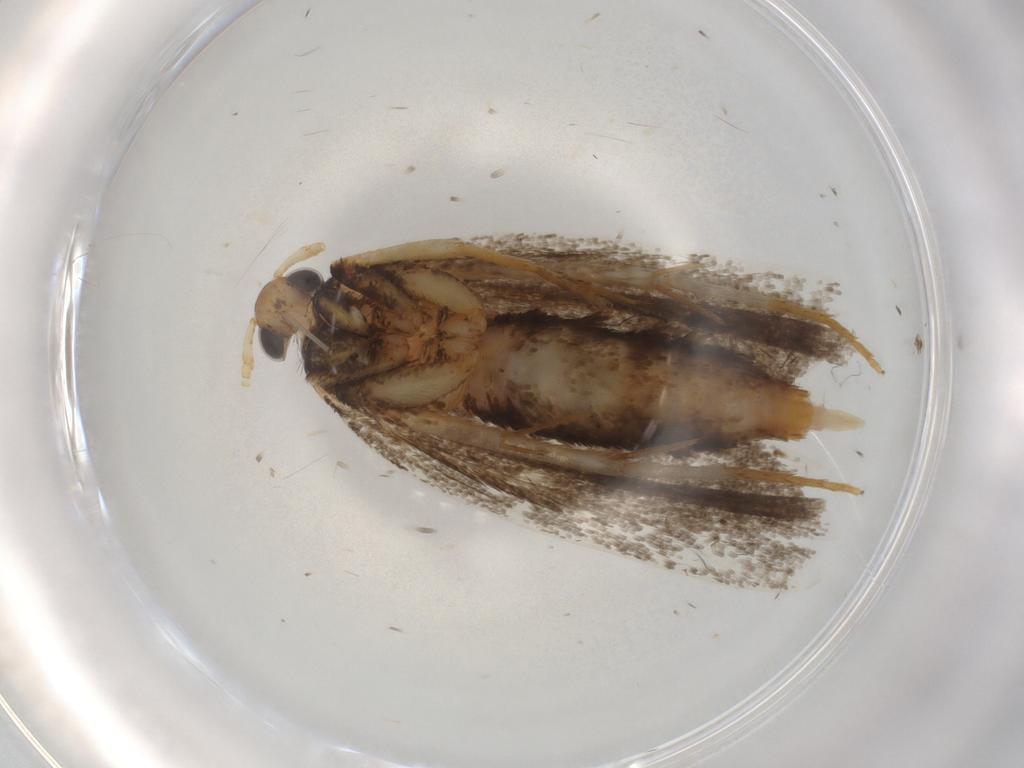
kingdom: Animalia
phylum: Arthropoda
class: Insecta
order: Lepidoptera
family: Lecithoceridae
